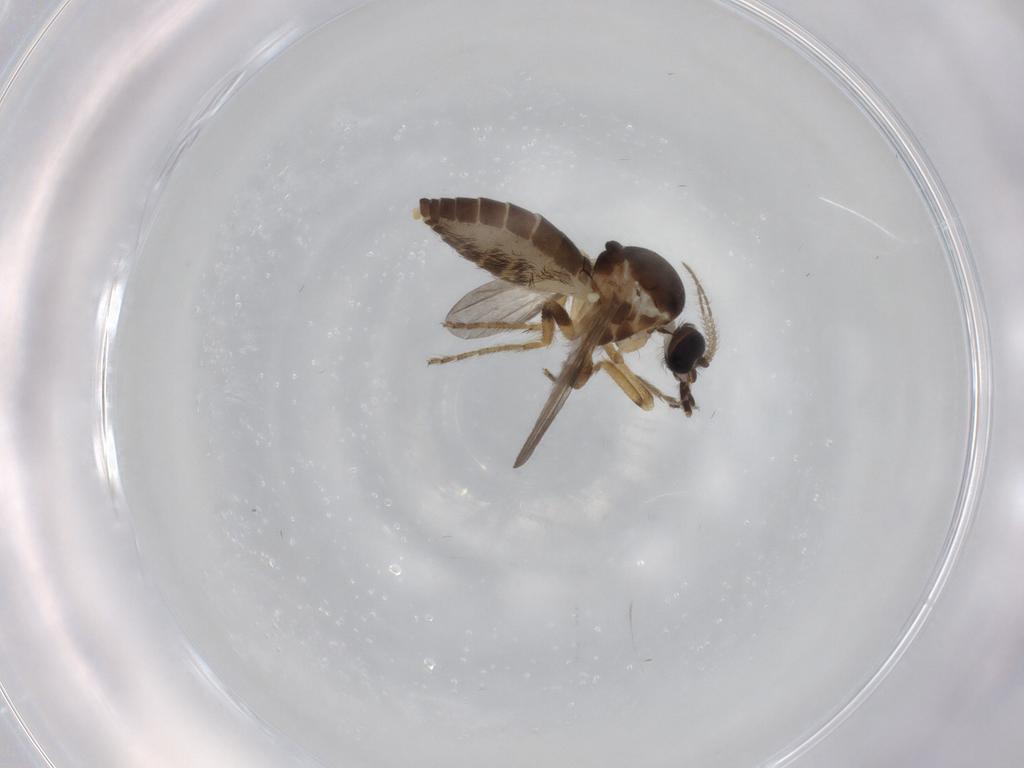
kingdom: Animalia
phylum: Arthropoda
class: Insecta
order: Diptera
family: Chironomidae
